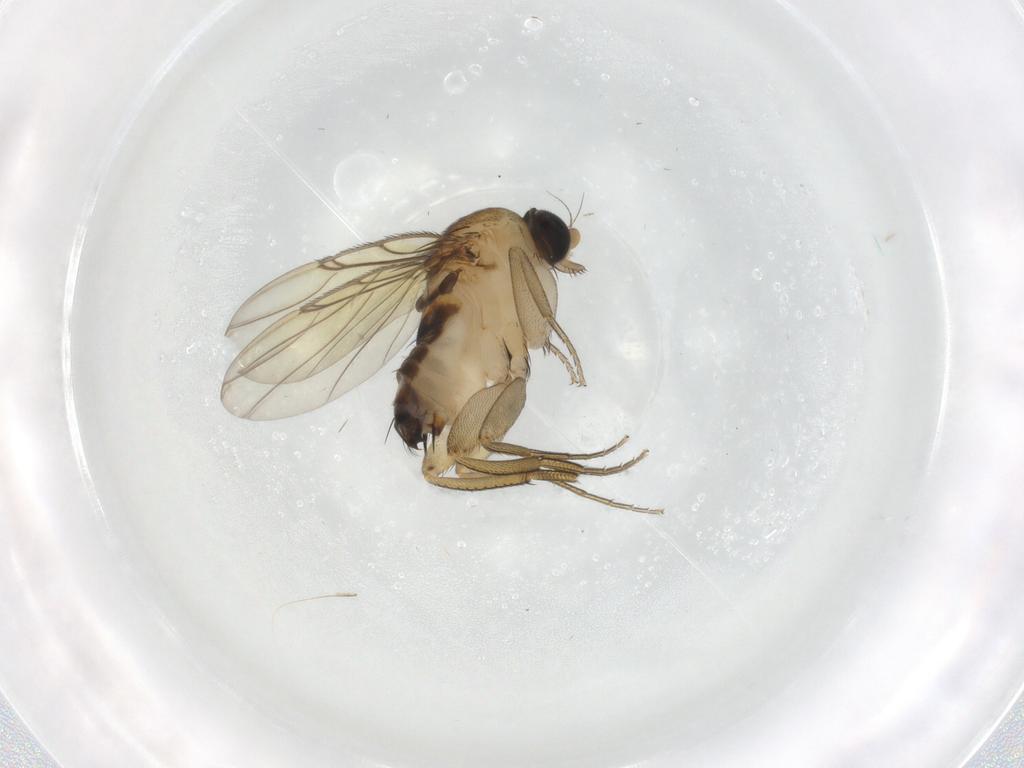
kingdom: Animalia
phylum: Arthropoda
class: Insecta
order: Diptera
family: Phoridae
